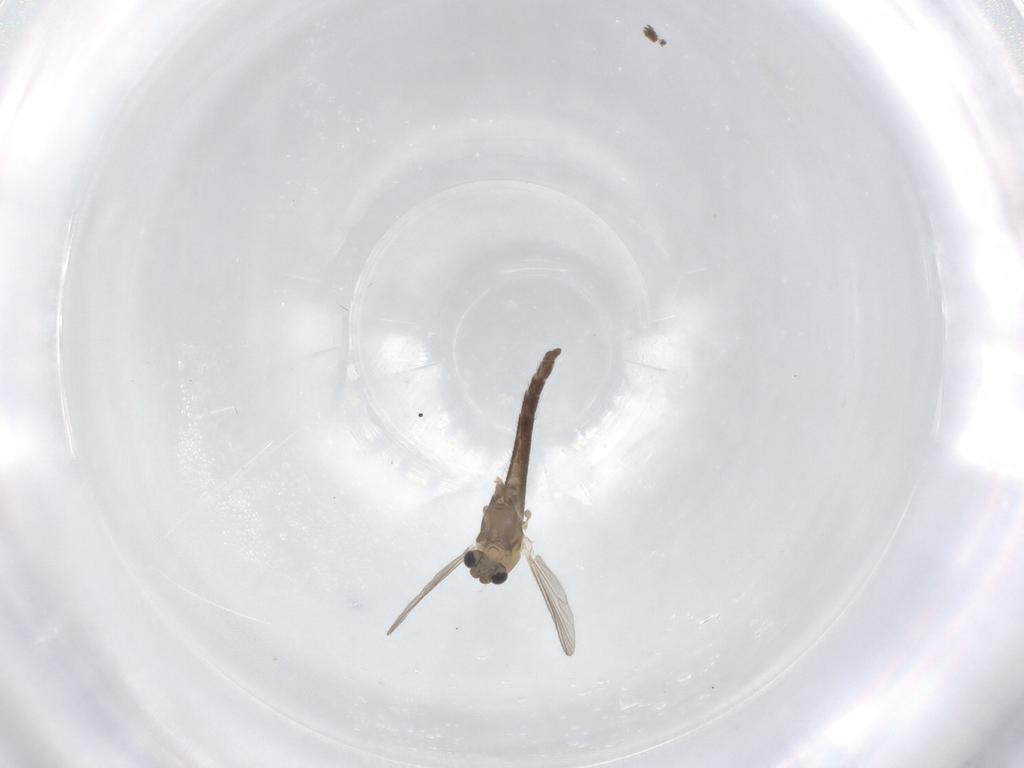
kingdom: Animalia
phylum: Arthropoda
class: Insecta
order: Diptera
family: Chironomidae
